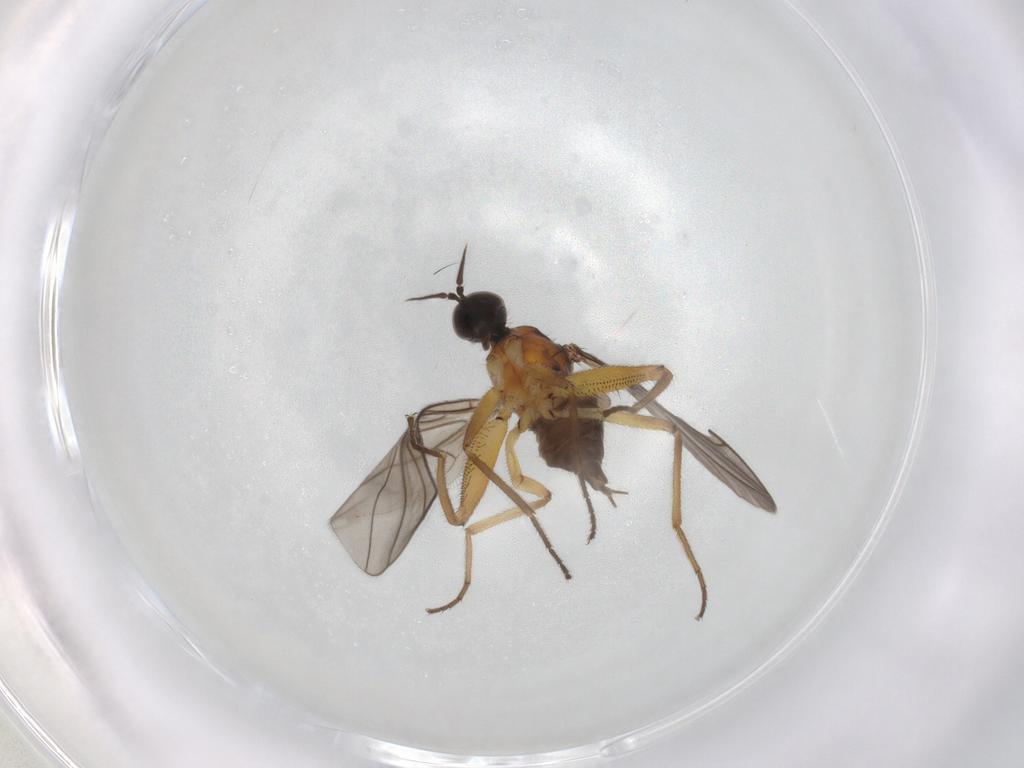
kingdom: Animalia
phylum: Arthropoda
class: Insecta
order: Diptera
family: Hybotidae
